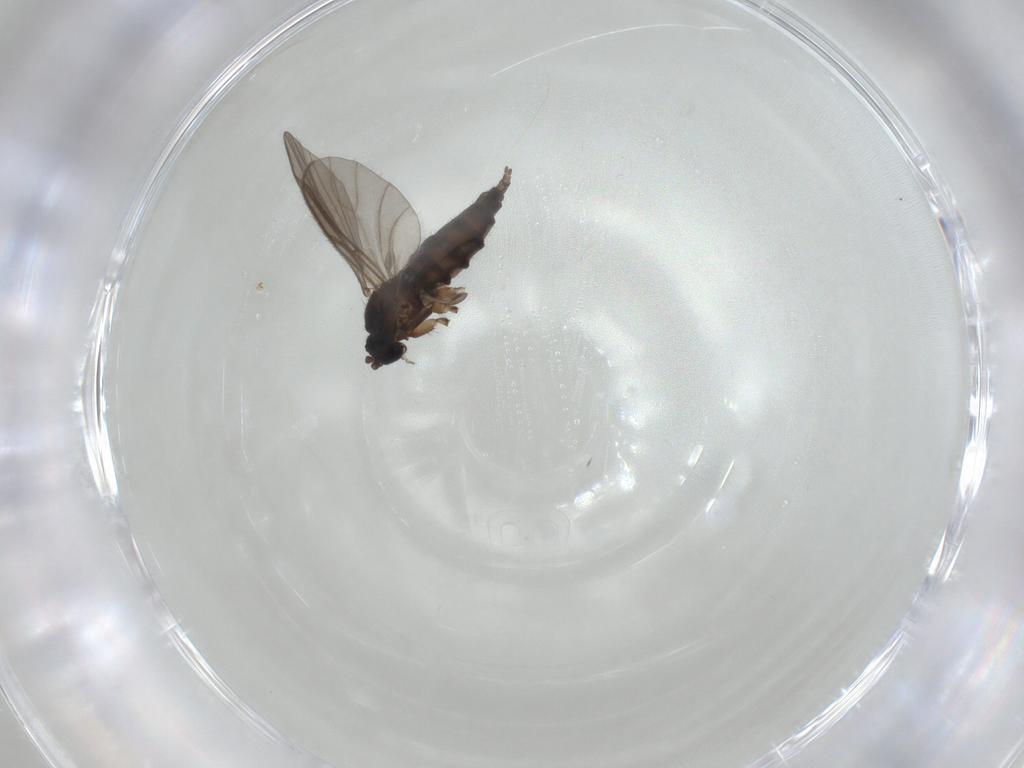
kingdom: Animalia
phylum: Arthropoda
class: Insecta
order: Diptera
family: Sciaridae
